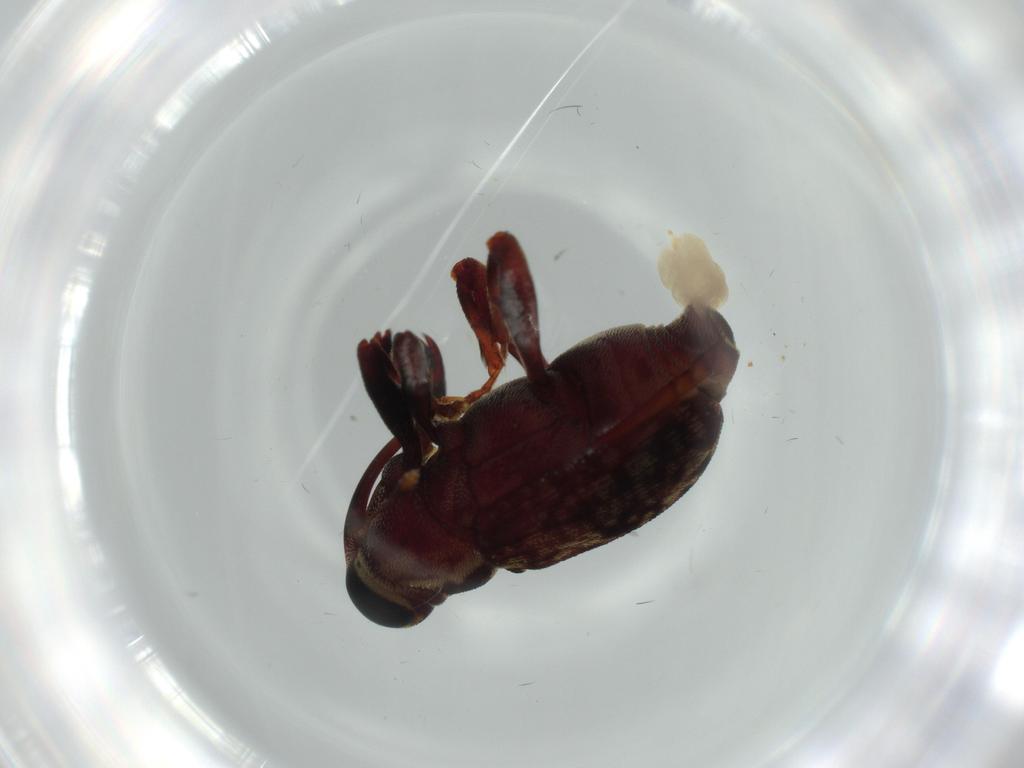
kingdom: Animalia
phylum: Arthropoda
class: Insecta
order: Coleoptera
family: Curculionidae
